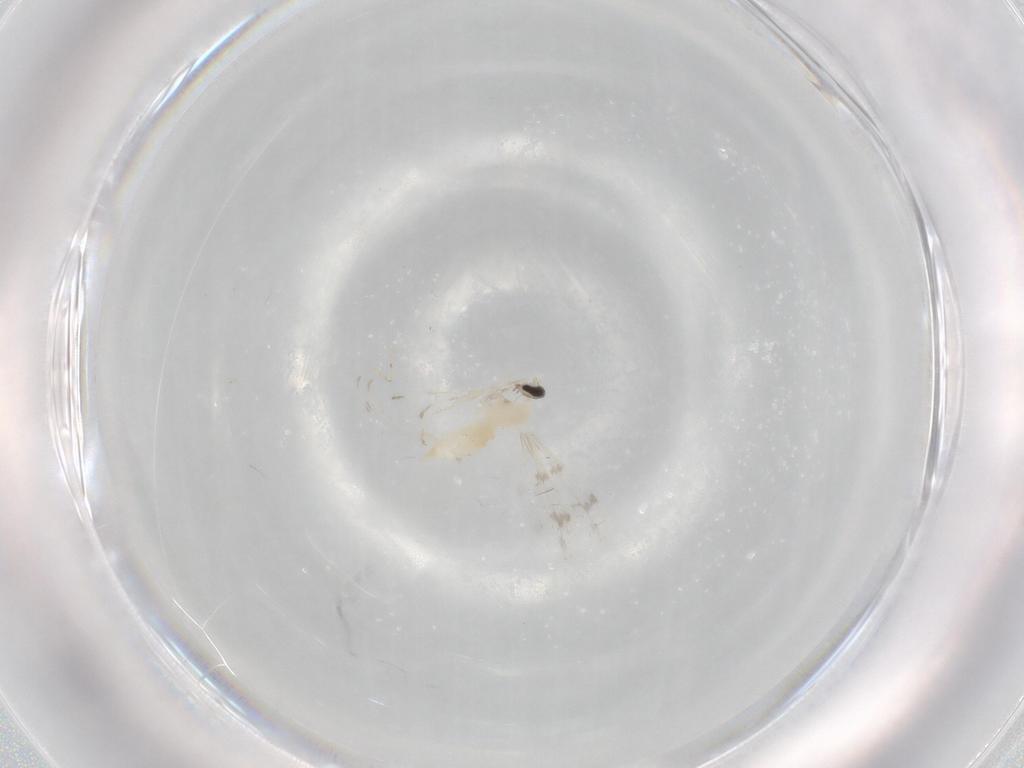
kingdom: Animalia
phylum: Arthropoda
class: Insecta
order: Diptera
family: Cecidomyiidae
